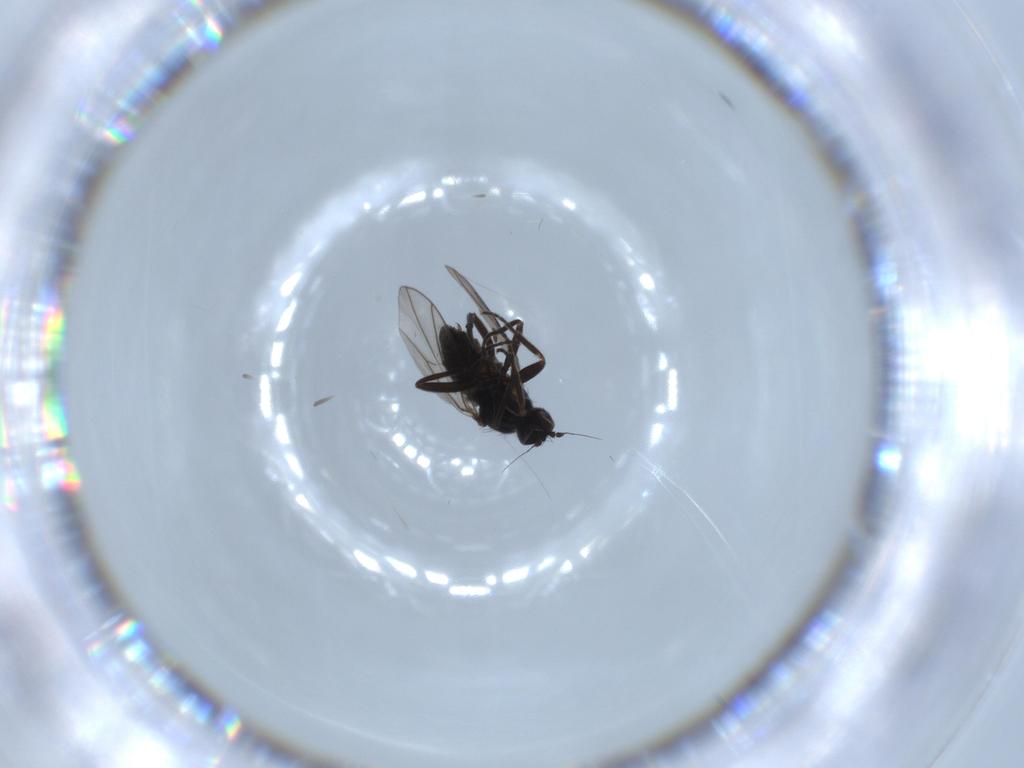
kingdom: Animalia
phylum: Arthropoda
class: Insecta
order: Diptera
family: Hybotidae
